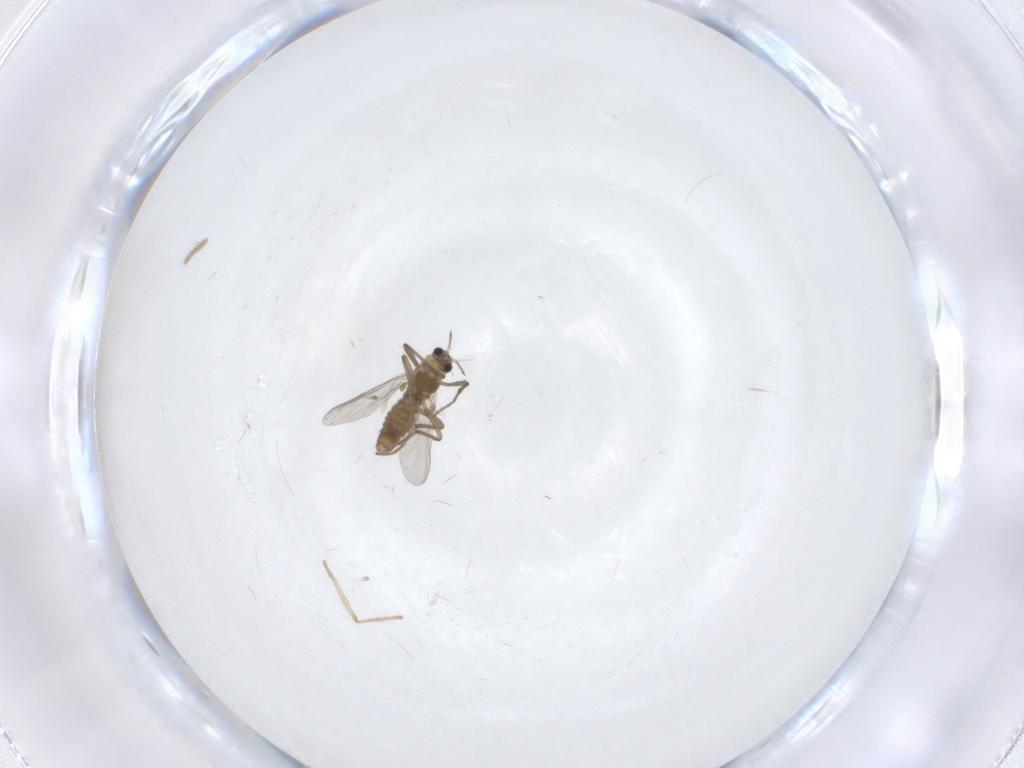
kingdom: Animalia
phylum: Arthropoda
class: Insecta
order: Diptera
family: Chironomidae
